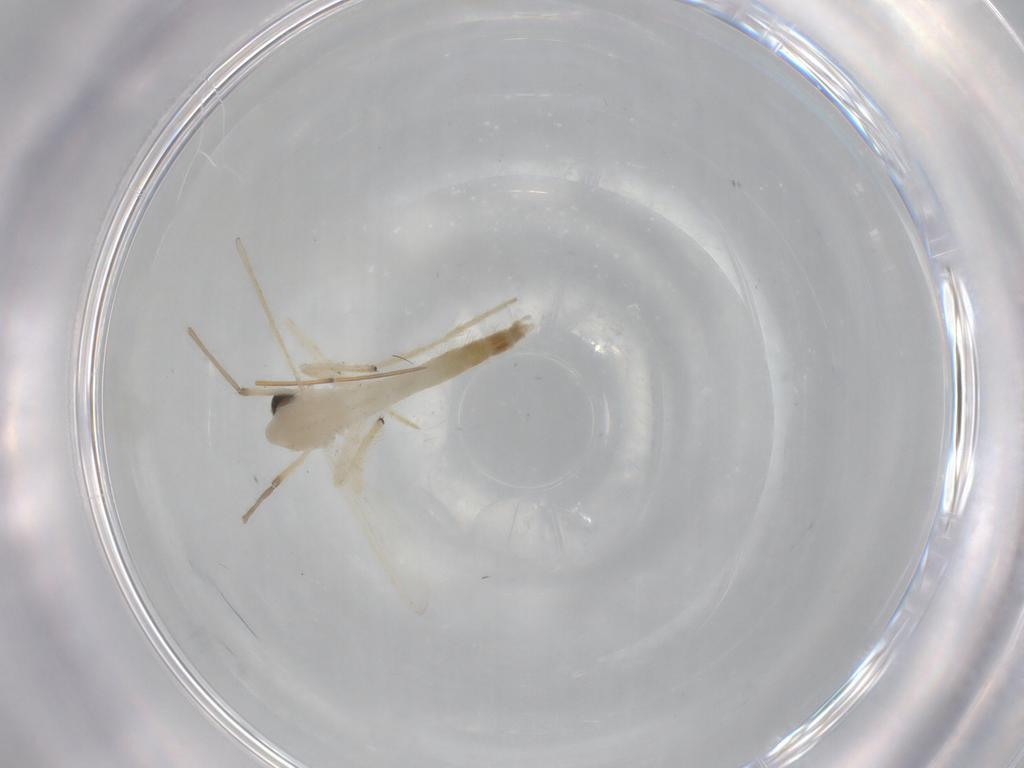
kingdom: Animalia
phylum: Arthropoda
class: Insecta
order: Diptera
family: Chironomidae
